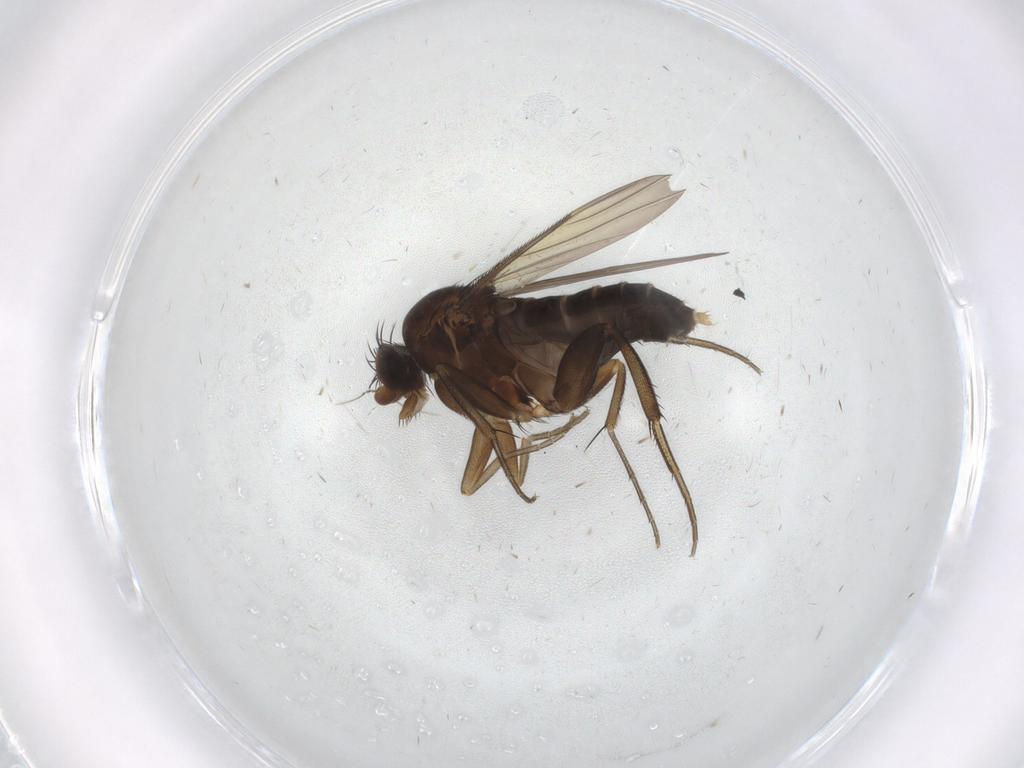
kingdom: Animalia
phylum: Arthropoda
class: Insecta
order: Diptera
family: Phoridae
